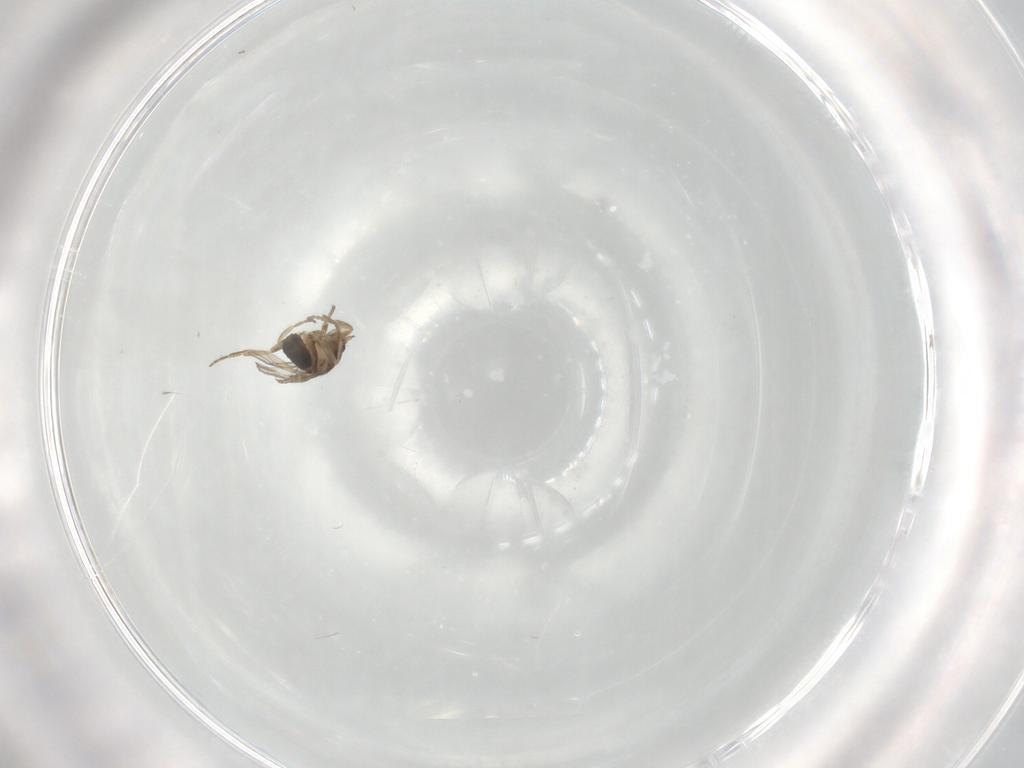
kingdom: Animalia
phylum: Arthropoda
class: Insecta
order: Diptera
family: Phoridae
